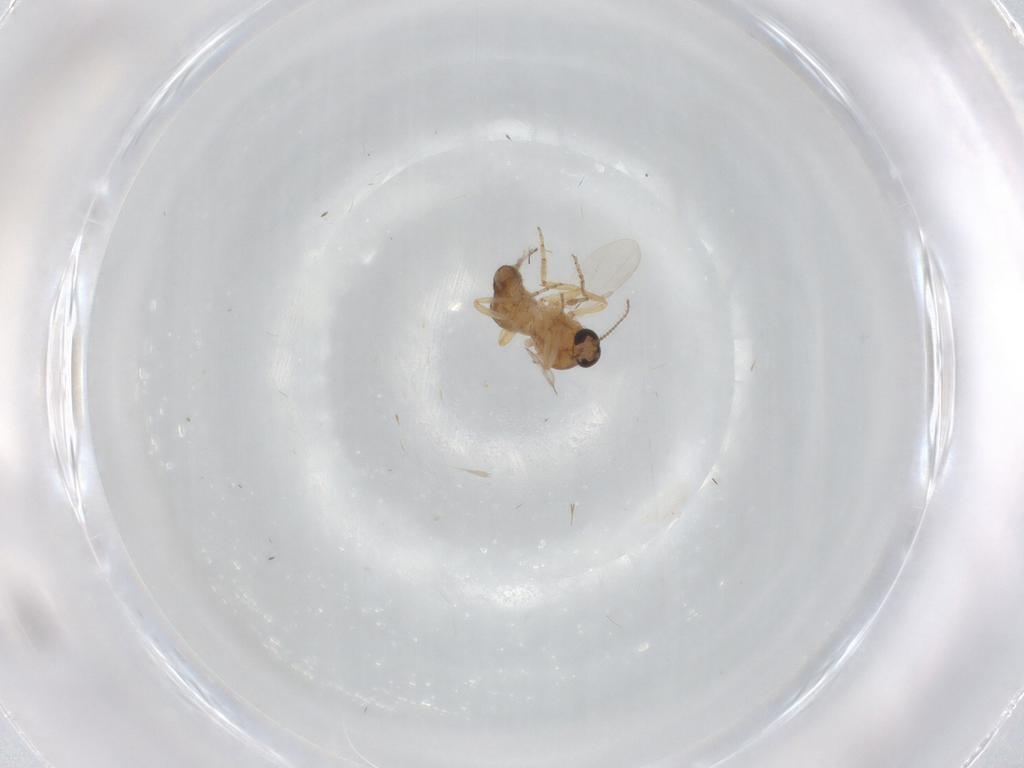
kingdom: Animalia
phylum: Arthropoda
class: Insecta
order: Diptera
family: Ceratopogonidae
